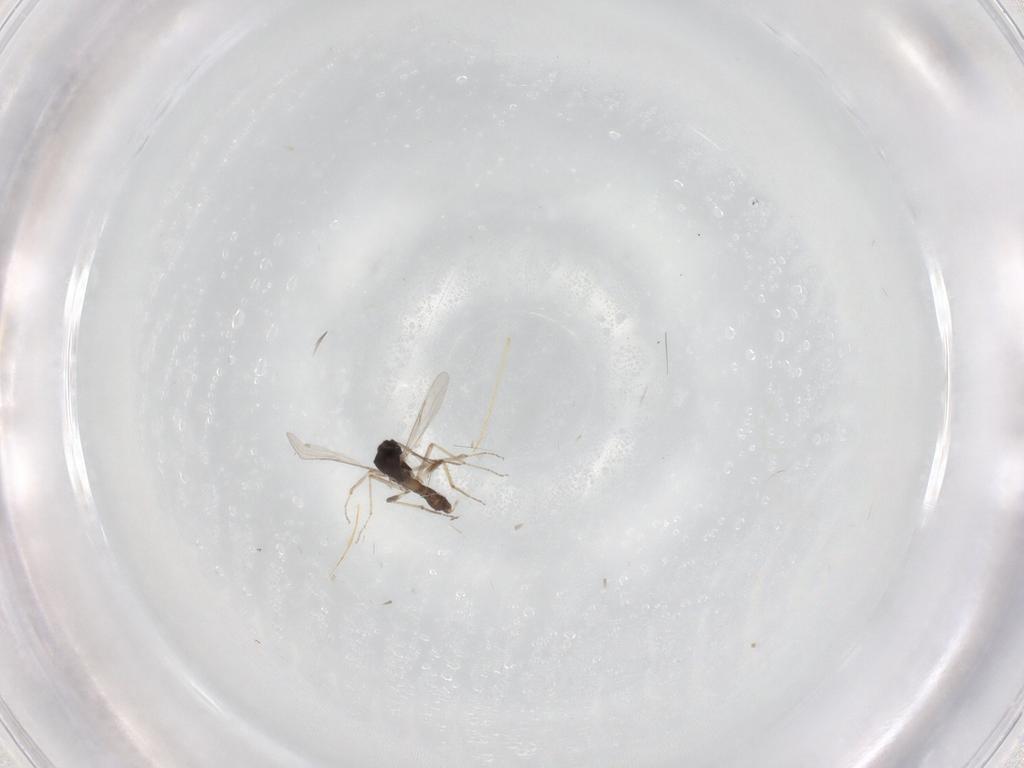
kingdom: Animalia
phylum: Arthropoda
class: Insecta
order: Diptera
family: Ceratopogonidae
